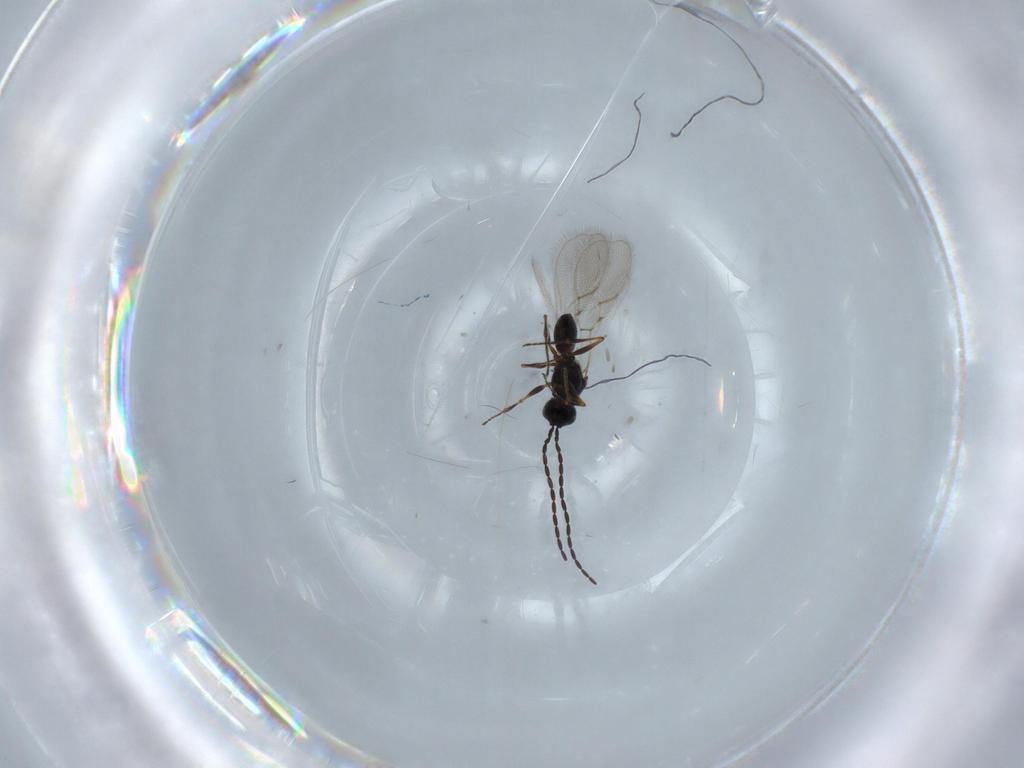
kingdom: Animalia
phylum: Arthropoda
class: Insecta
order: Hymenoptera
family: Figitidae
